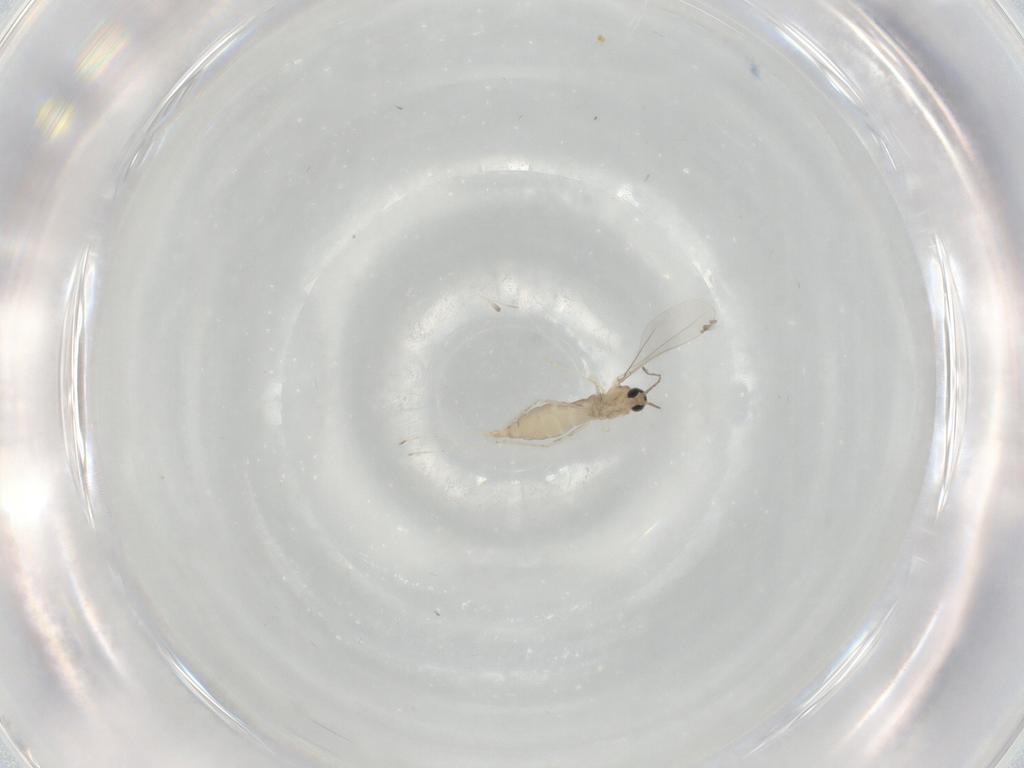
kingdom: Animalia
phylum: Arthropoda
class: Insecta
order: Diptera
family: Cecidomyiidae
